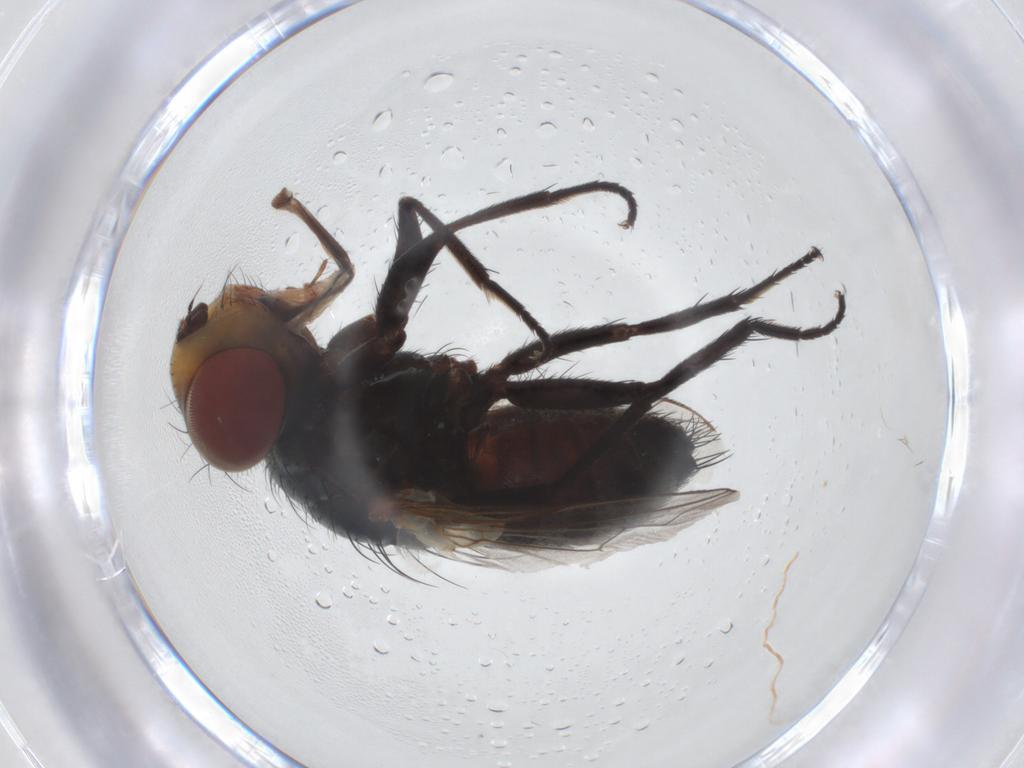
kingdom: Animalia
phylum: Arthropoda
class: Insecta
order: Diptera
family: Sarcophagidae
